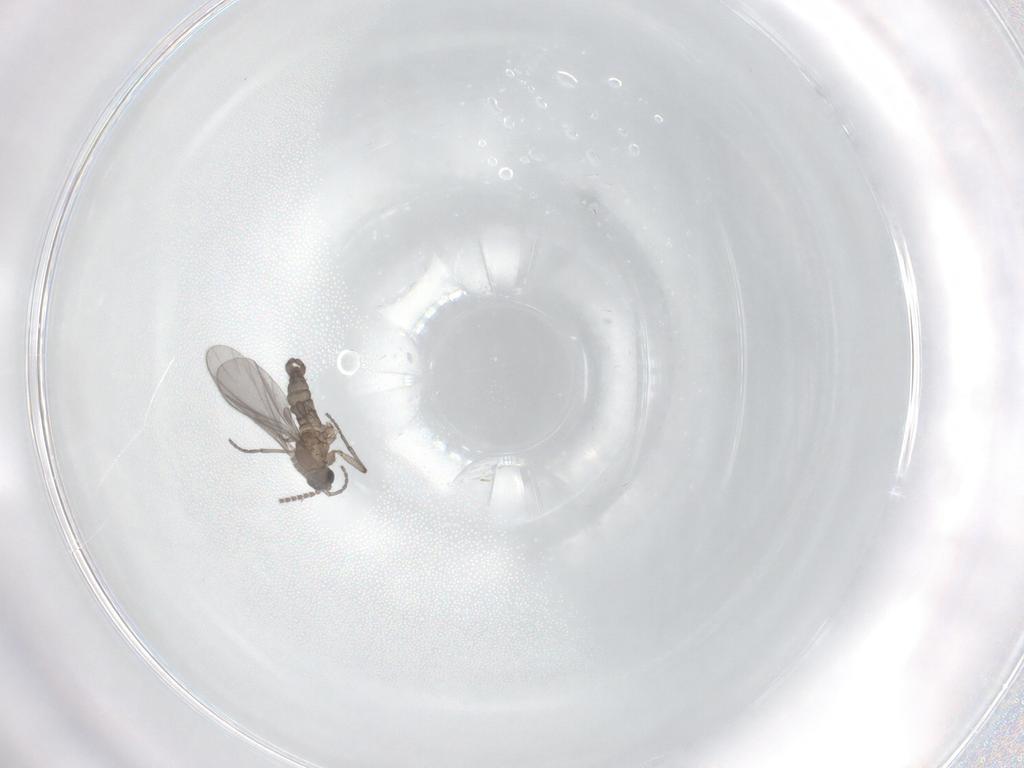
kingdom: Animalia
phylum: Arthropoda
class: Insecta
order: Diptera
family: Sciaridae
